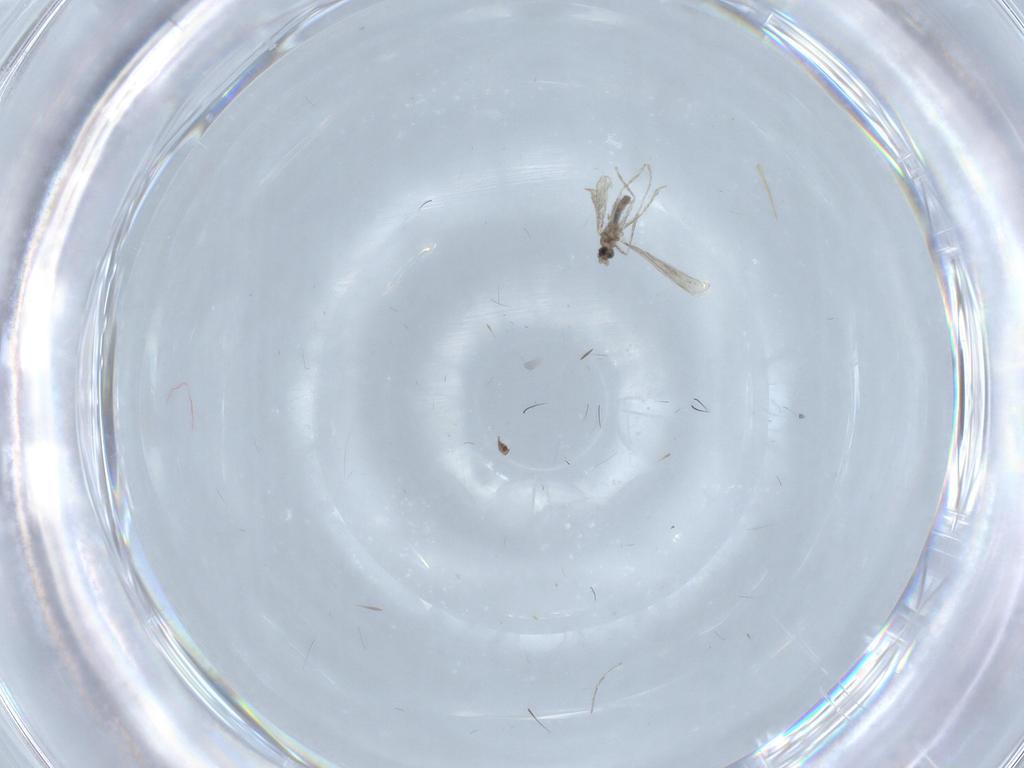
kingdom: Animalia
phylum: Arthropoda
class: Insecta
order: Diptera
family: Cecidomyiidae
